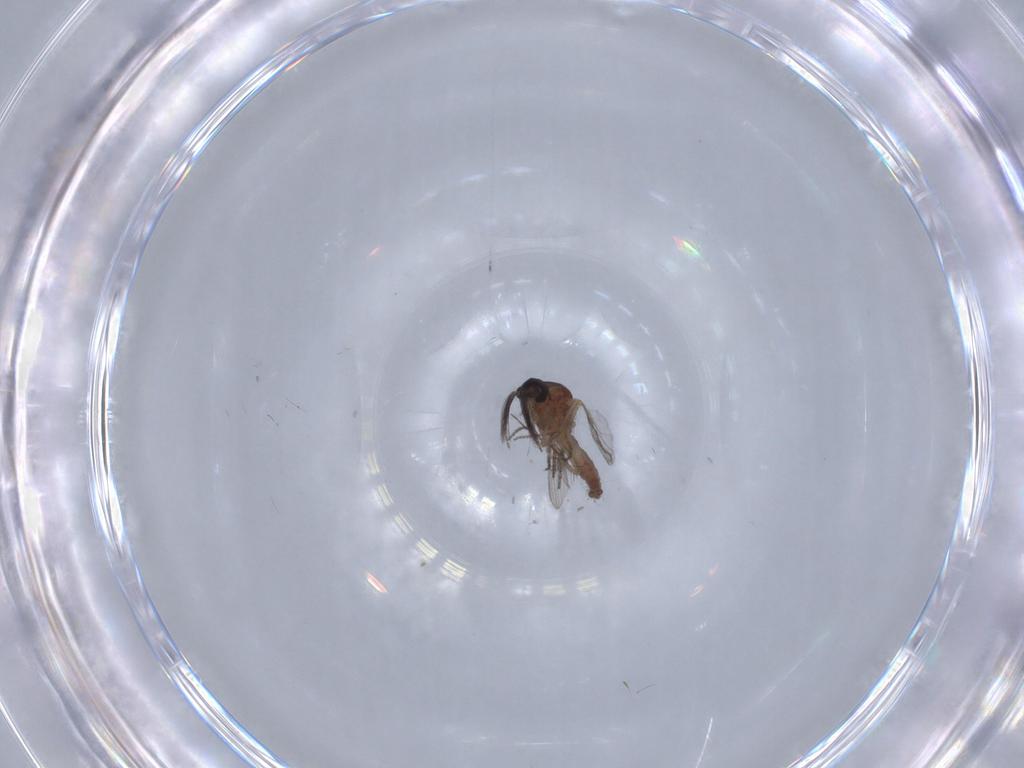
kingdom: Animalia
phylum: Arthropoda
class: Insecta
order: Diptera
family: Ceratopogonidae
